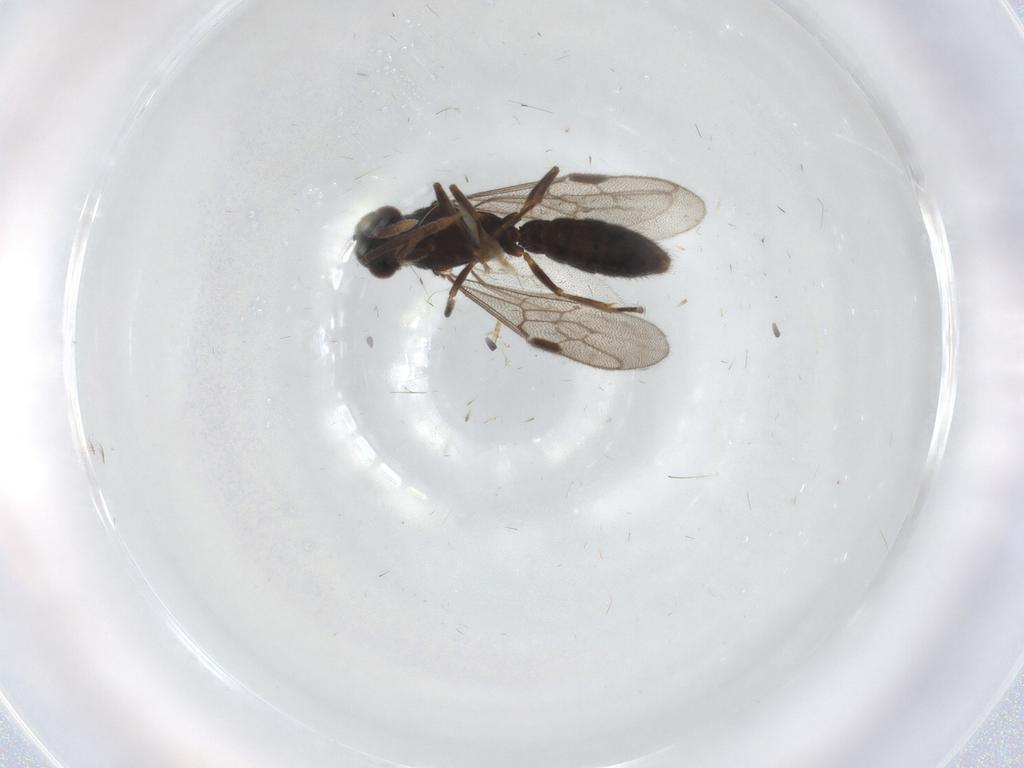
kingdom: Animalia
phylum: Arthropoda
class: Insecta
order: Hymenoptera
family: Formicidae
